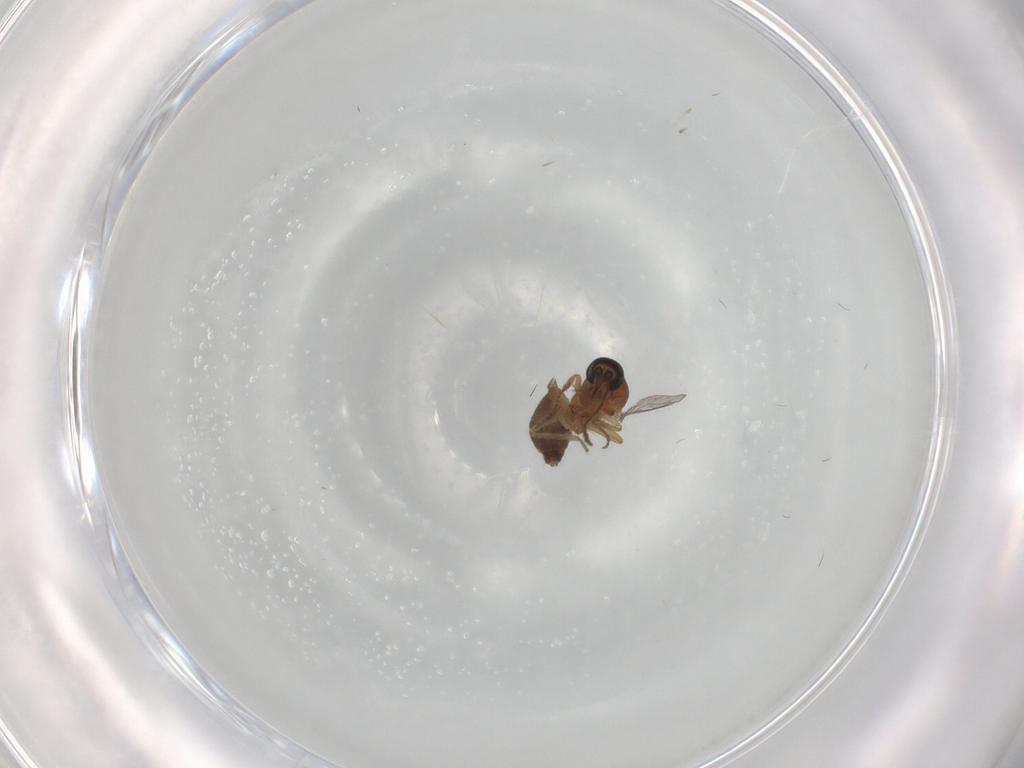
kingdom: Animalia
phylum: Arthropoda
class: Insecta
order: Diptera
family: Ceratopogonidae
